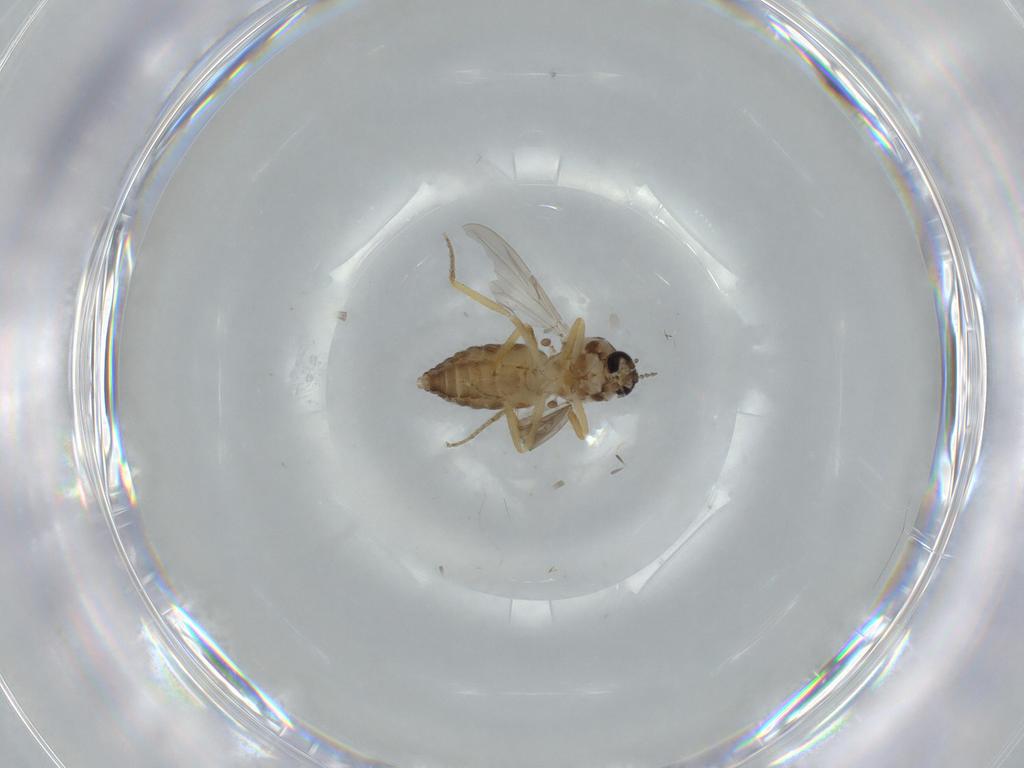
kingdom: Animalia
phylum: Arthropoda
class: Insecta
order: Diptera
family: Ceratopogonidae
